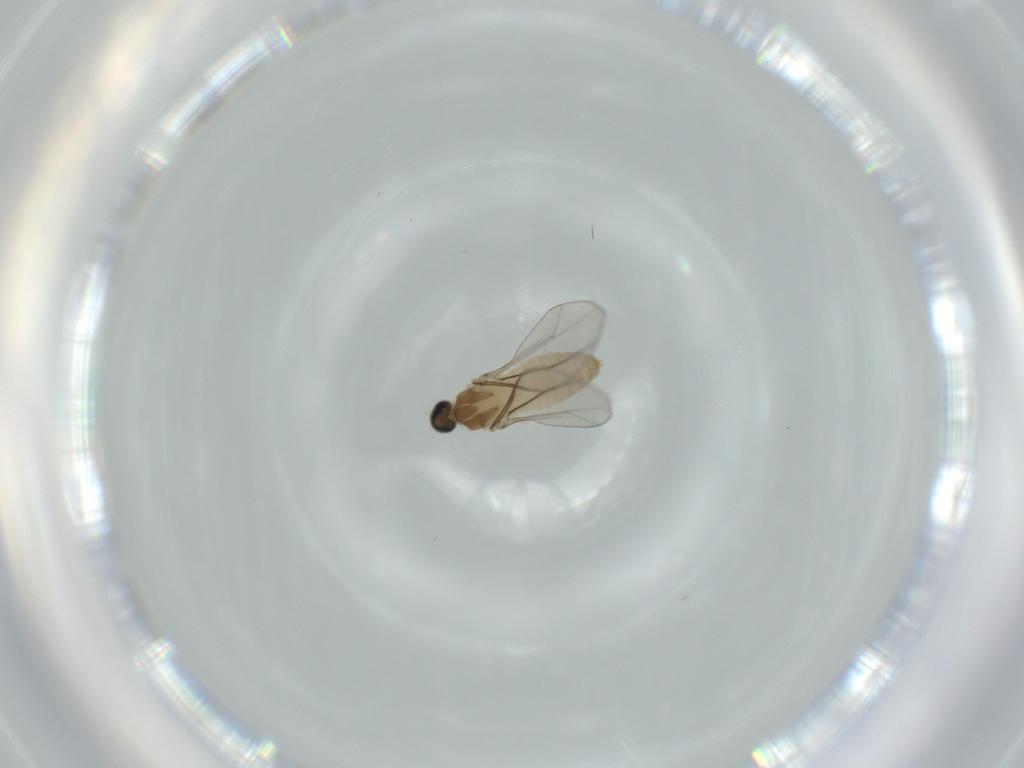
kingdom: Animalia
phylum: Arthropoda
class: Insecta
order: Diptera
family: Cecidomyiidae
